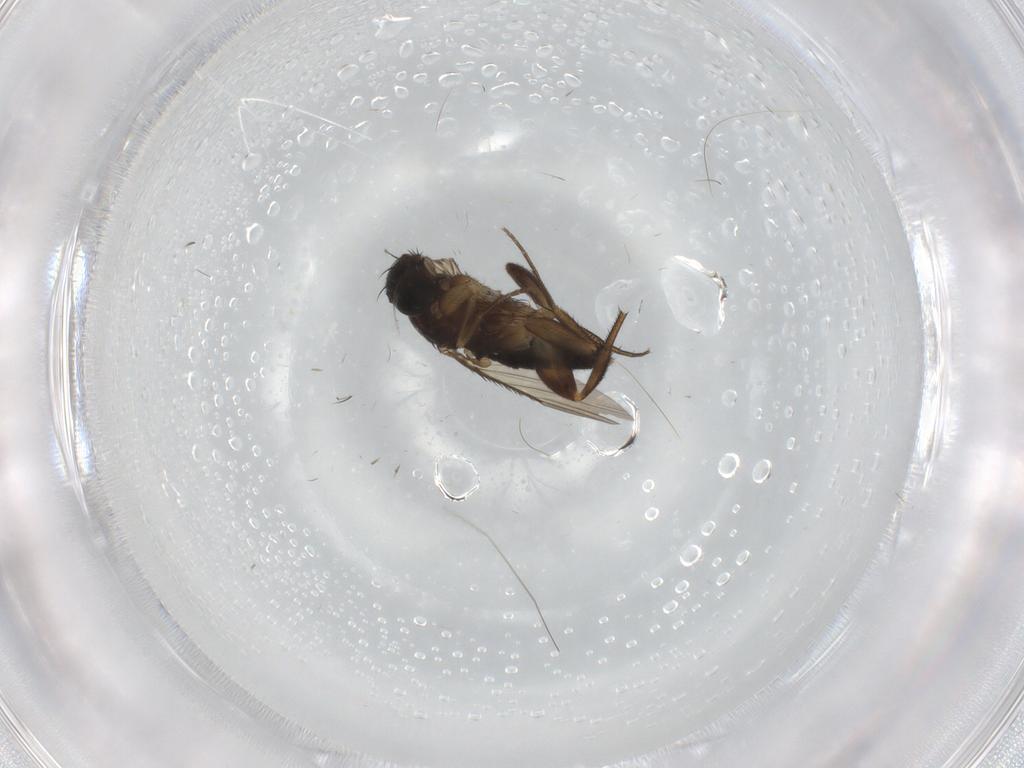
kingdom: Animalia
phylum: Arthropoda
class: Insecta
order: Diptera
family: Phoridae
